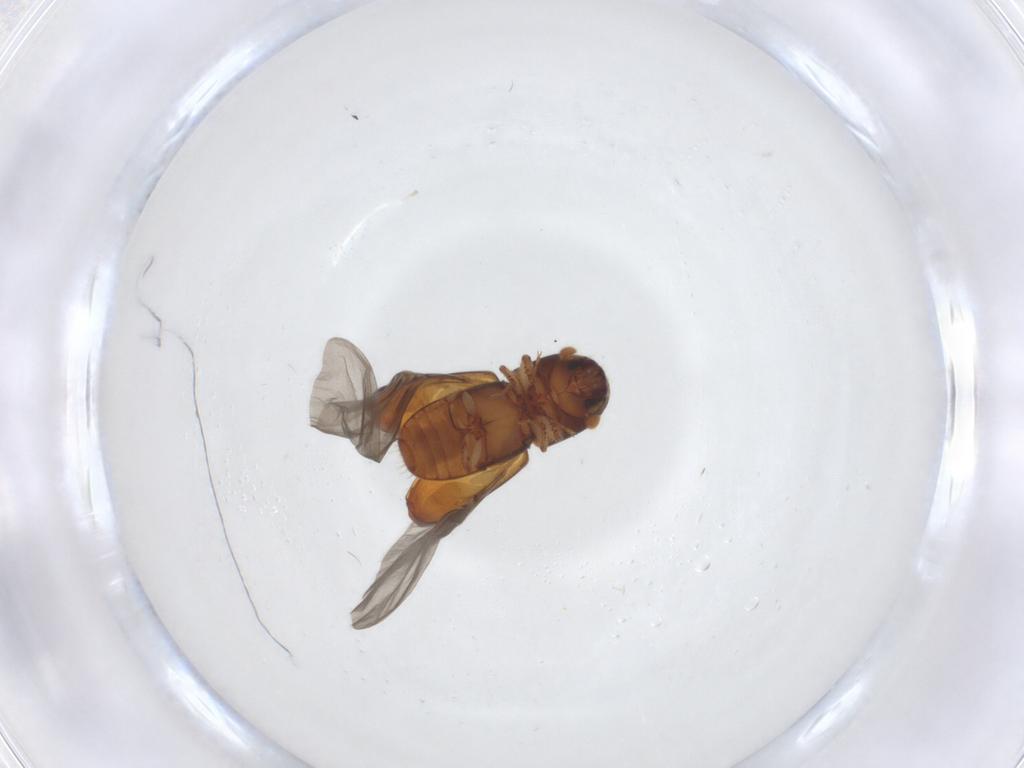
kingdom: Animalia
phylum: Arthropoda
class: Insecta
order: Coleoptera
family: Curculionidae
